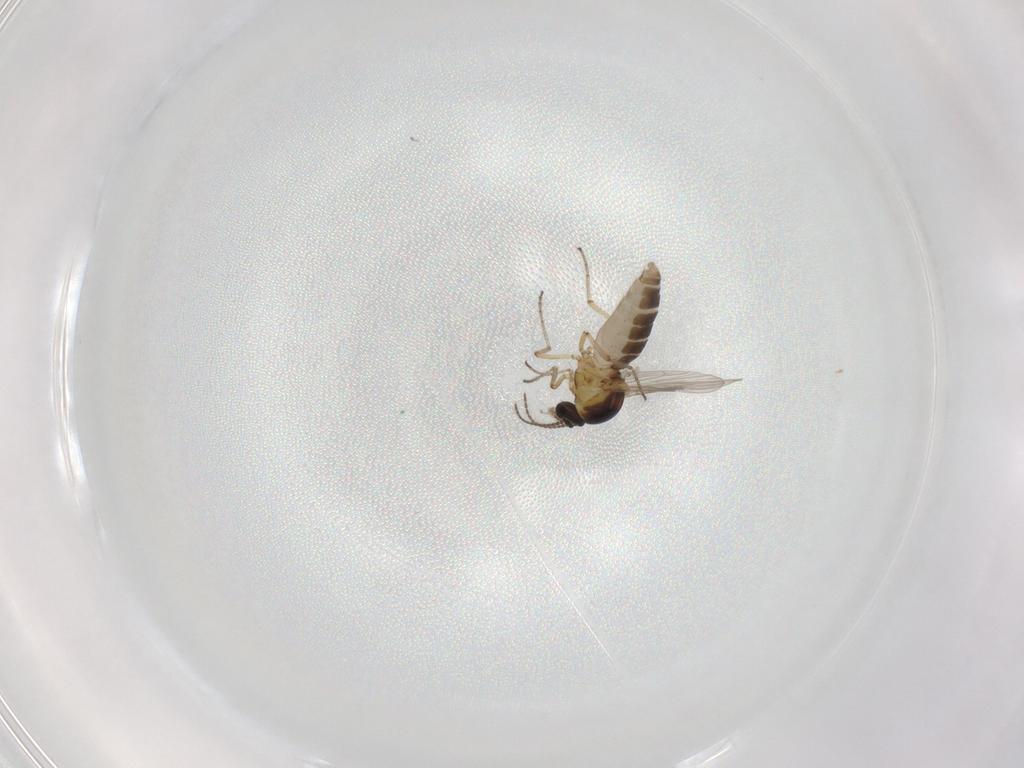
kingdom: Animalia
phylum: Arthropoda
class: Insecta
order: Diptera
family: Ceratopogonidae
